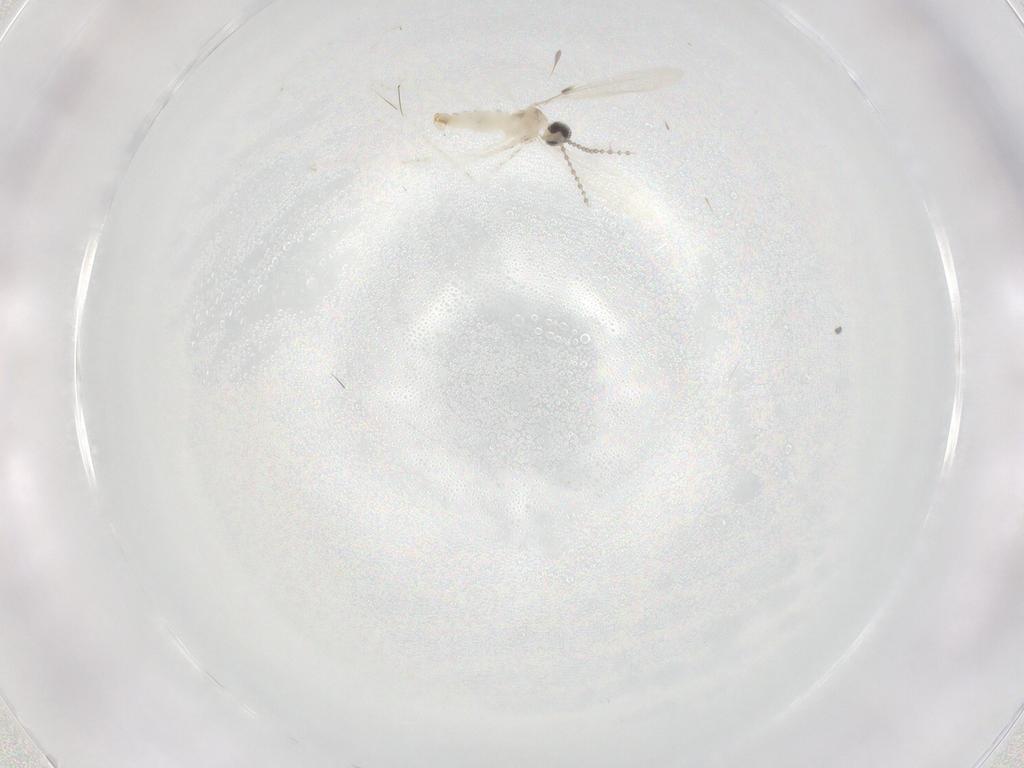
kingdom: Animalia
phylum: Arthropoda
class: Insecta
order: Diptera
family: Cecidomyiidae
